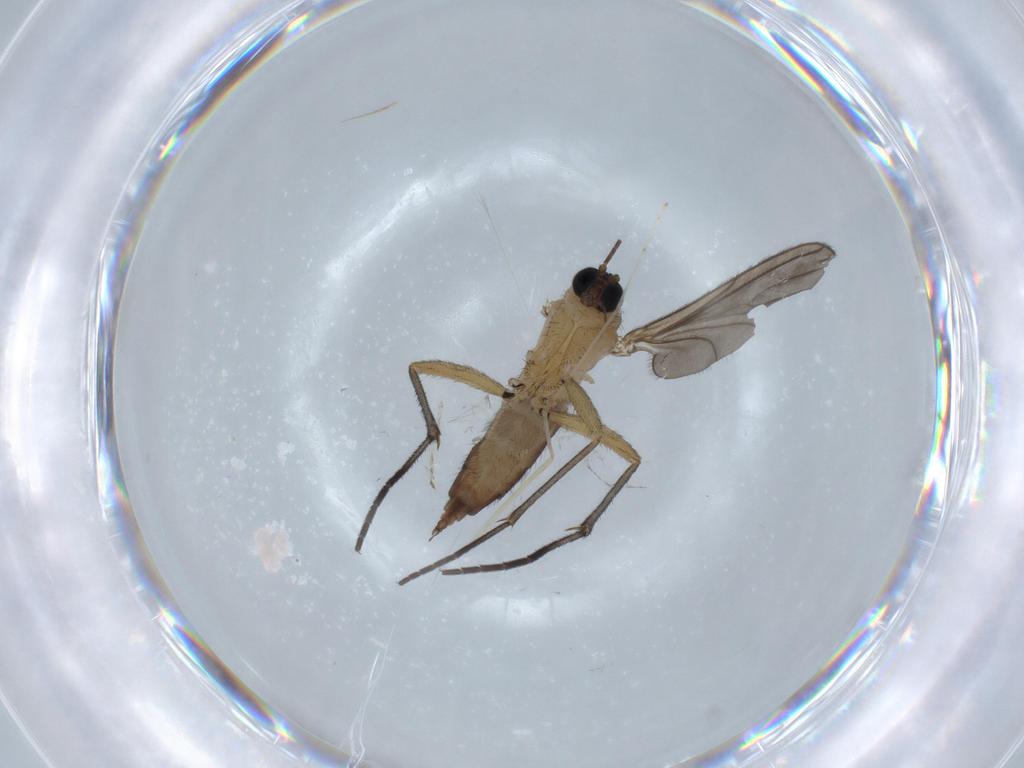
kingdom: Animalia
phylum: Arthropoda
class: Insecta
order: Diptera
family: Sciaridae
